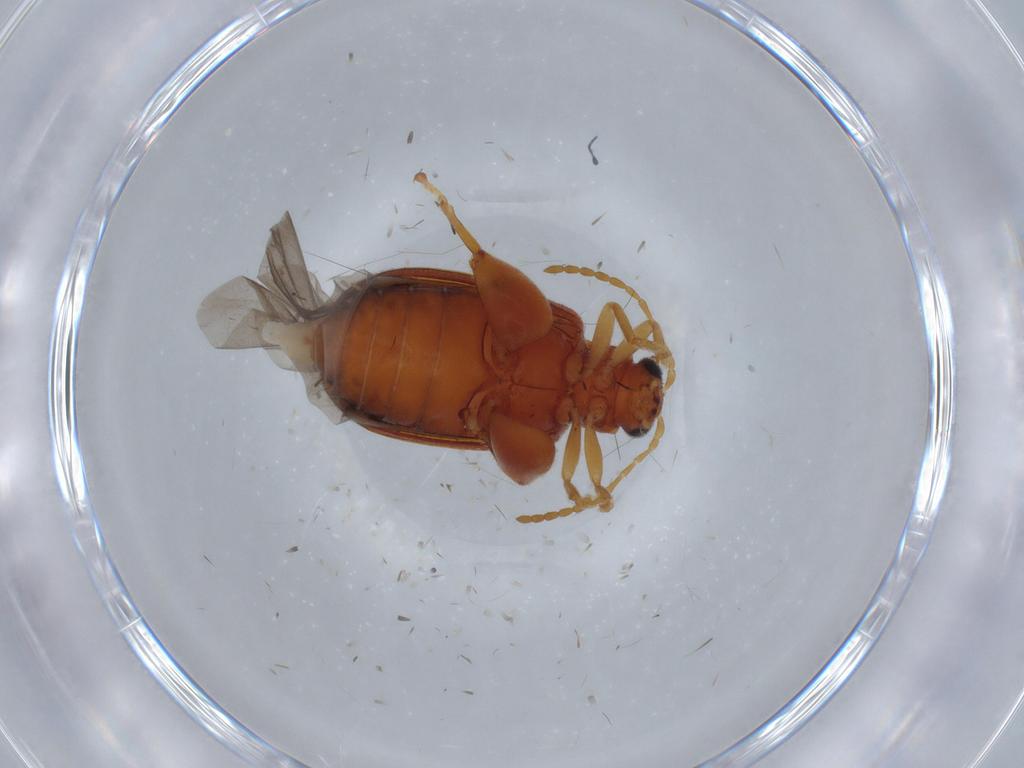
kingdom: Animalia
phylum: Arthropoda
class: Insecta
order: Coleoptera
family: Chrysomelidae
